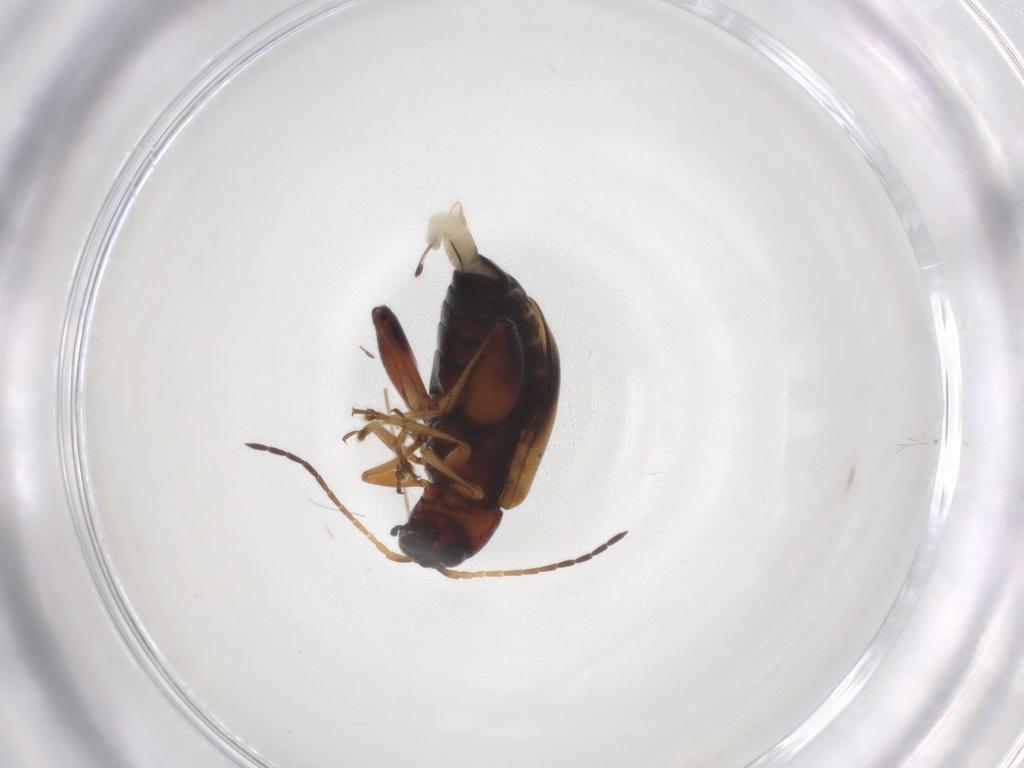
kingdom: Animalia
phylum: Arthropoda
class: Insecta
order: Coleoptera
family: Chrysomelidae
